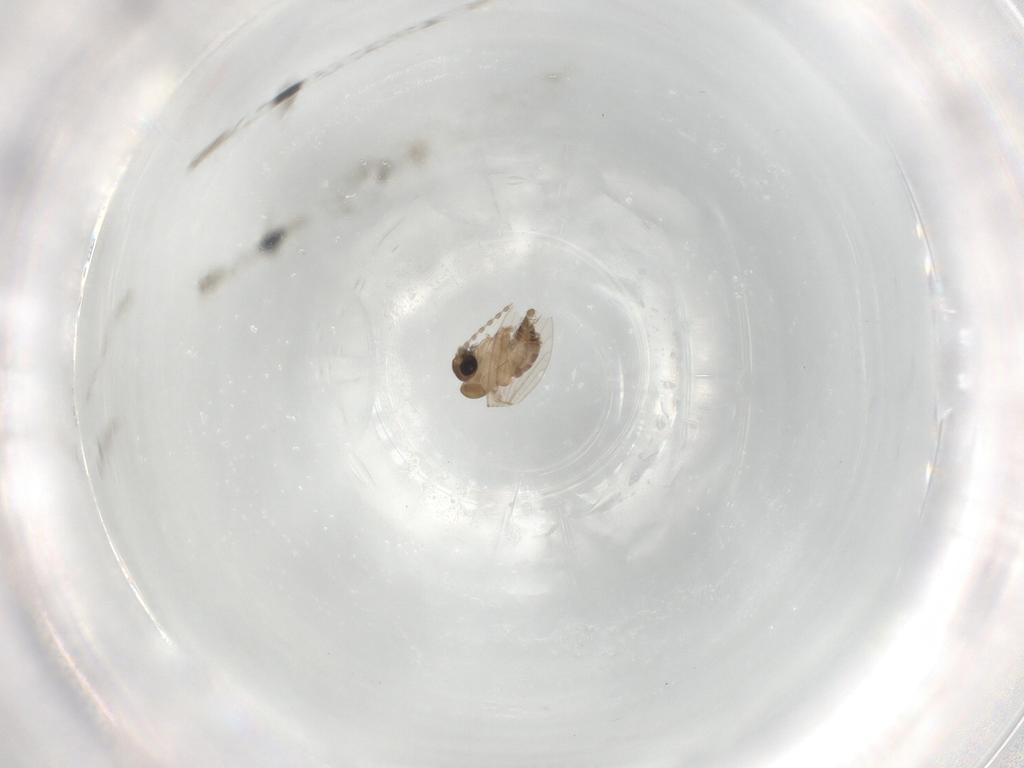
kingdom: Animalia
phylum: Arthropoda
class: Insecta
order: Diptera
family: Psychodidae
